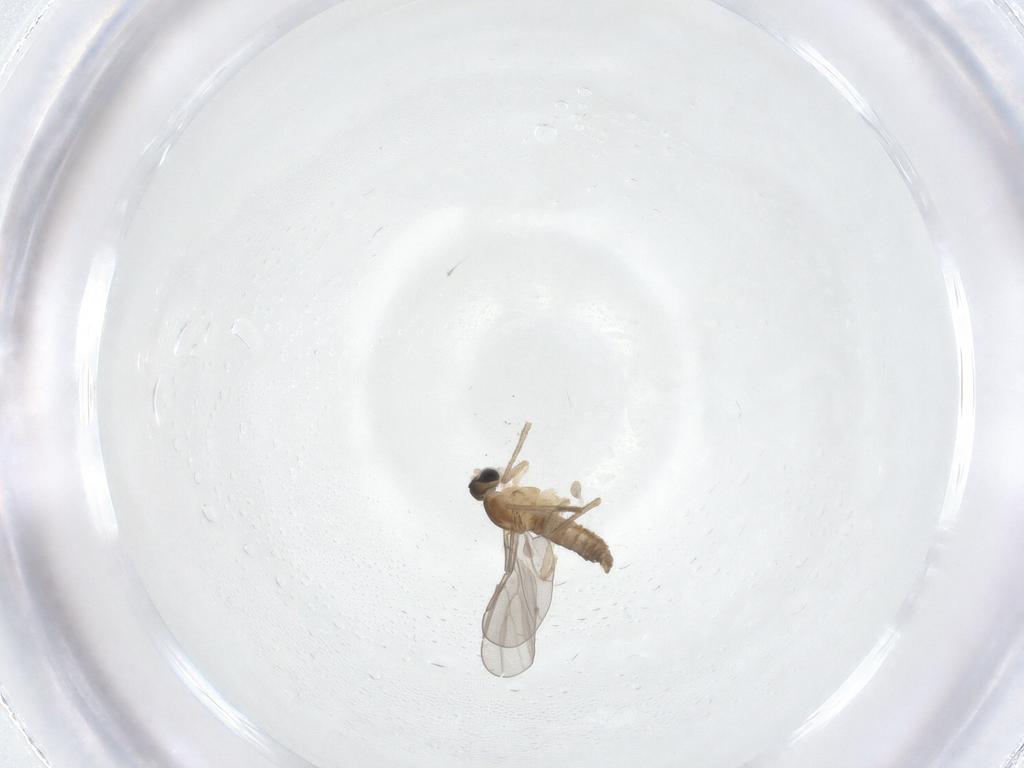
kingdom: Animalia
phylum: Arthropoda
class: Insecta
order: Diptera
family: Cecidomyiidae
